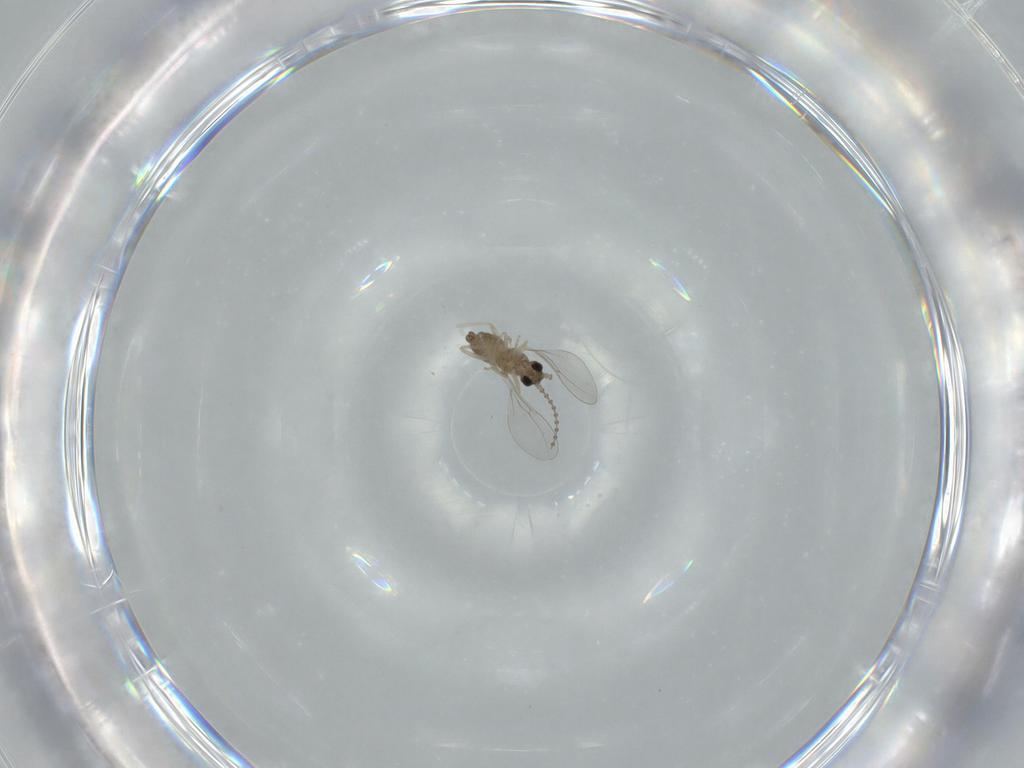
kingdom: Animalia
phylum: Arthropoda
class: Insecta
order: Diptera
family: Cecidomyiidae
